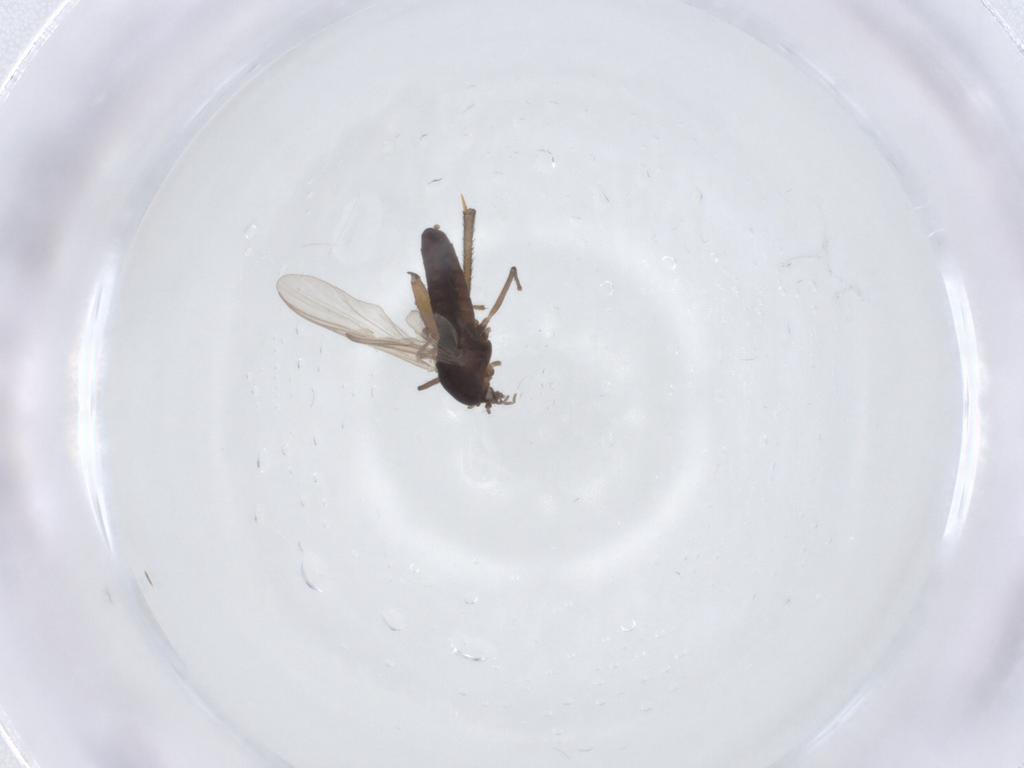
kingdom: Animalia
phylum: Arthropoda
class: Insecta
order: Diptera
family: Sciaridae
